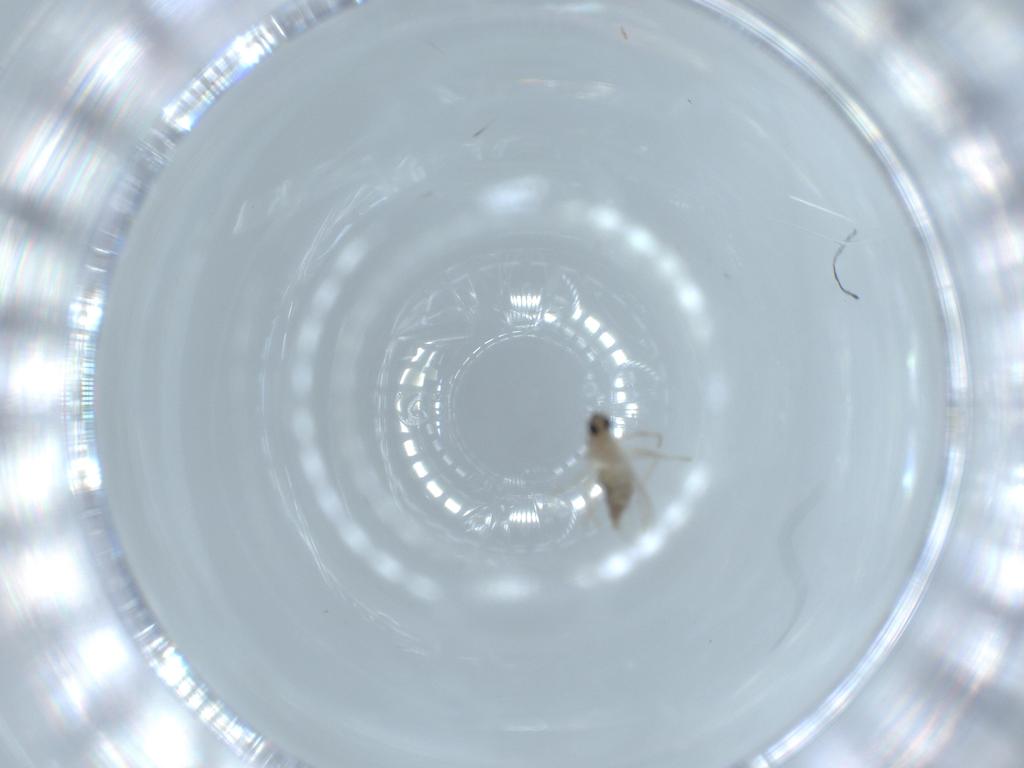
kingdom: Animalia
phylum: Arthropoda
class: Insecta
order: Diptera
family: Cecidomyiidae
